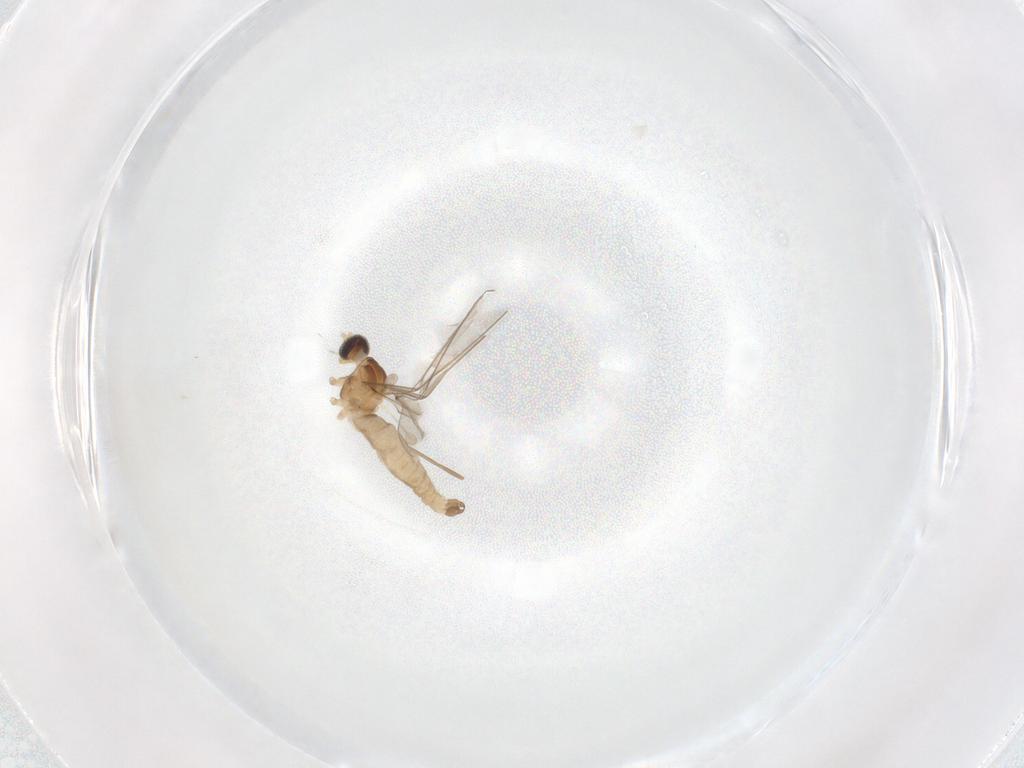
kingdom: Animalia
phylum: Arthropoda
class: Insecta
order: Diptera
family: Cecidomyiidae
